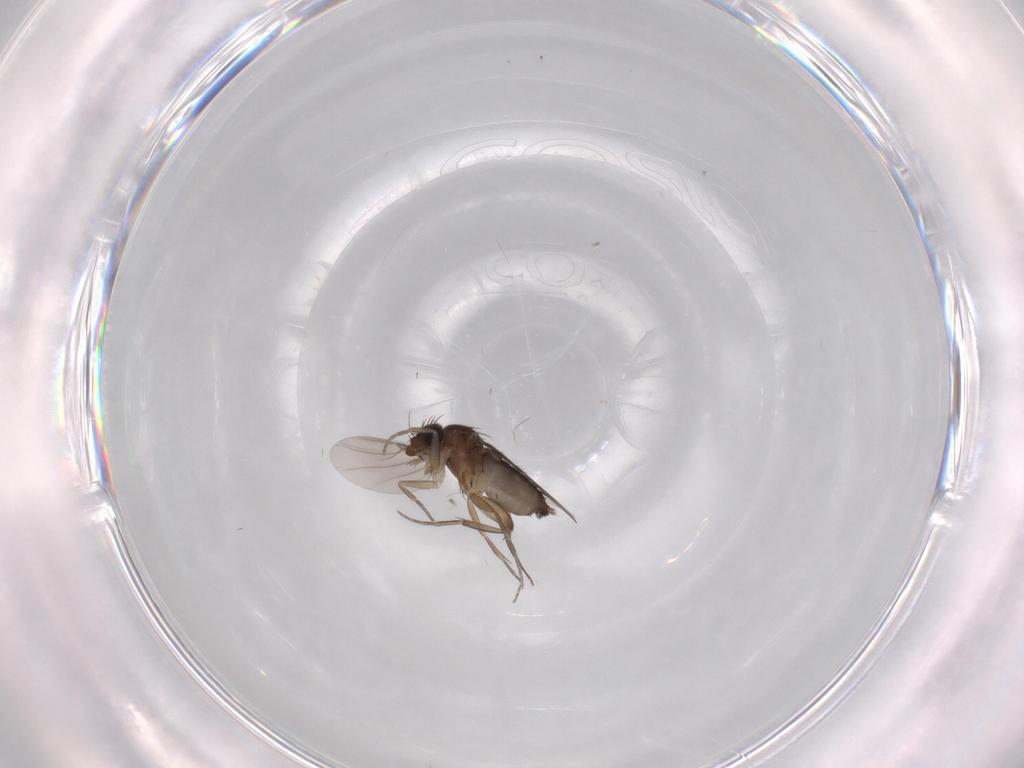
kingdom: Animalia
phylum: Arthropoda
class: Insecta
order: Diptera
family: Phoridae
